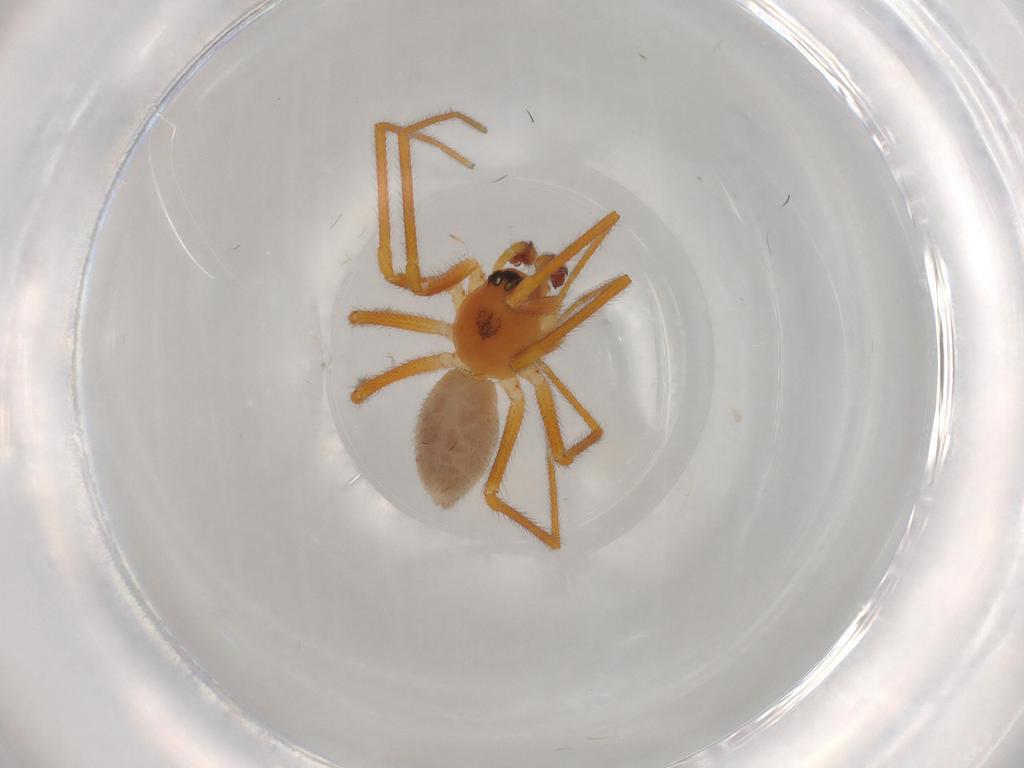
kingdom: Animalia
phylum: Arthropoda
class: Arachnida
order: Araneae
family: Linyphiidae
